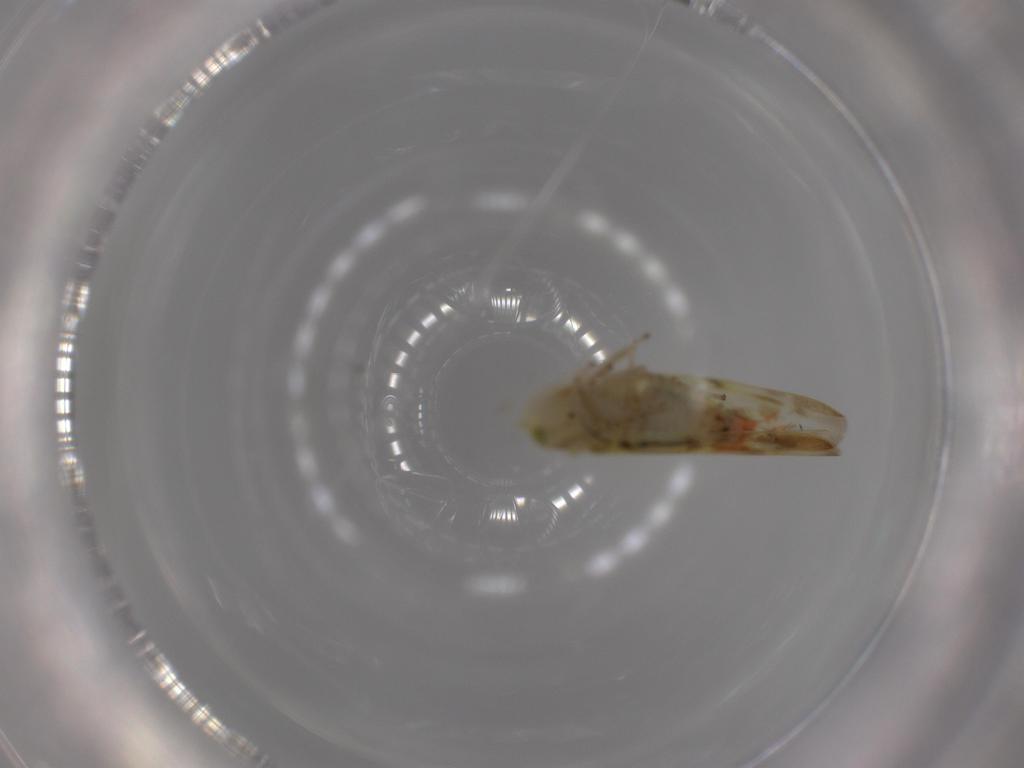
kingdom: Animalia
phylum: Arthropoda
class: Insecta
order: Hemiptera
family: Cicadellidae
